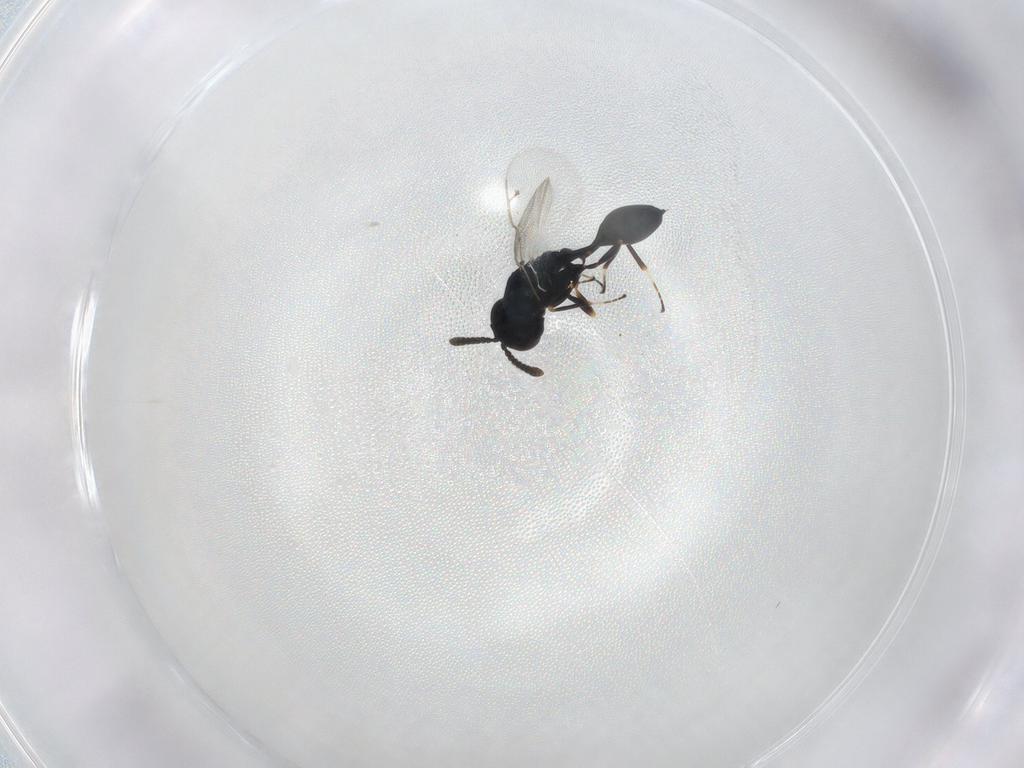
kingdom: Animalia
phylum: Arthropoda
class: Insecta
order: Hymenoptera
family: Pteromalidae
